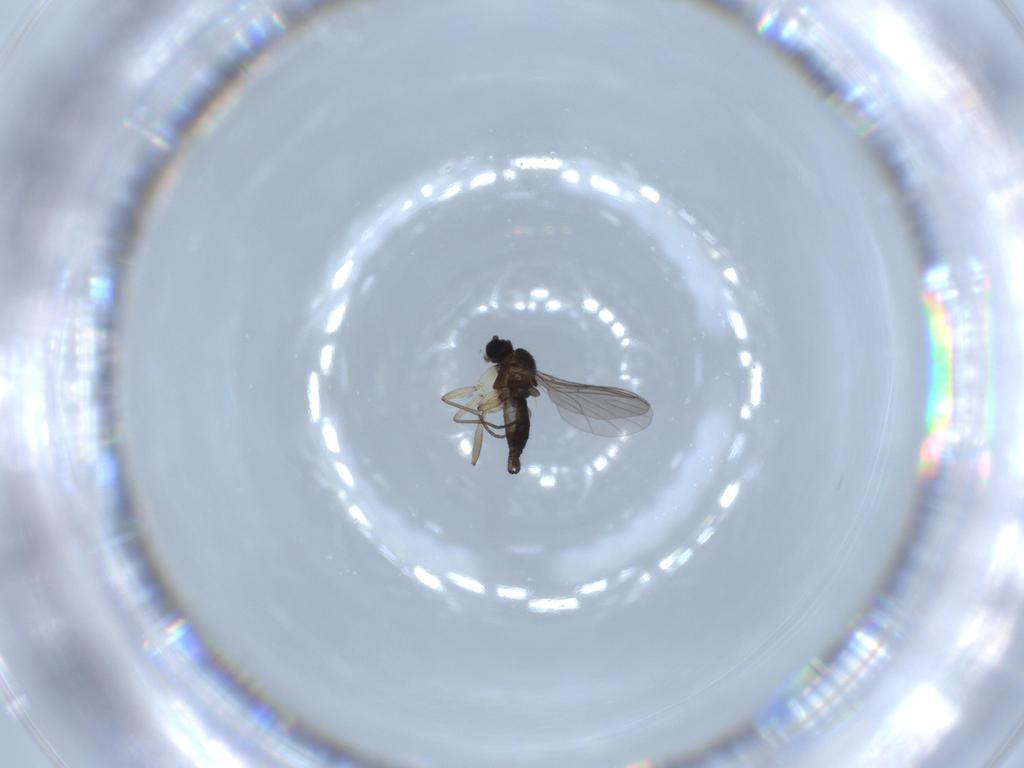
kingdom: Animalia
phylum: Arthropoda
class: Insecta
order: Diptera
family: Sciaridae
